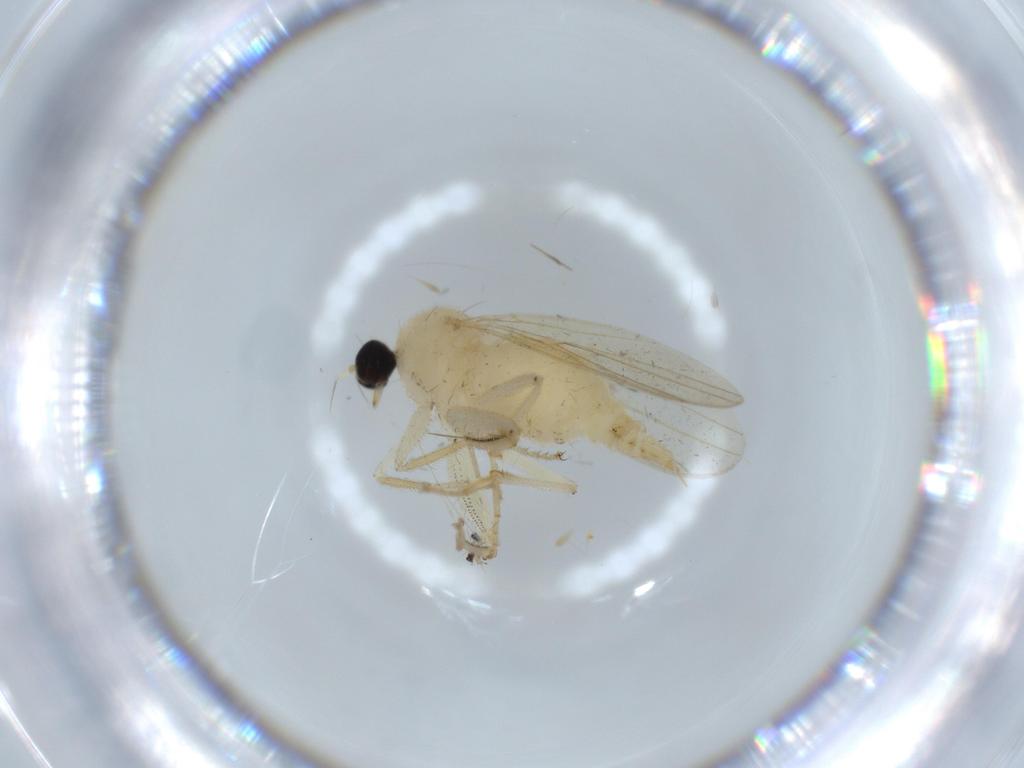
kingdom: Animalia
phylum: Arthropoda
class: Insecta
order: Diptera
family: Hybotidae
